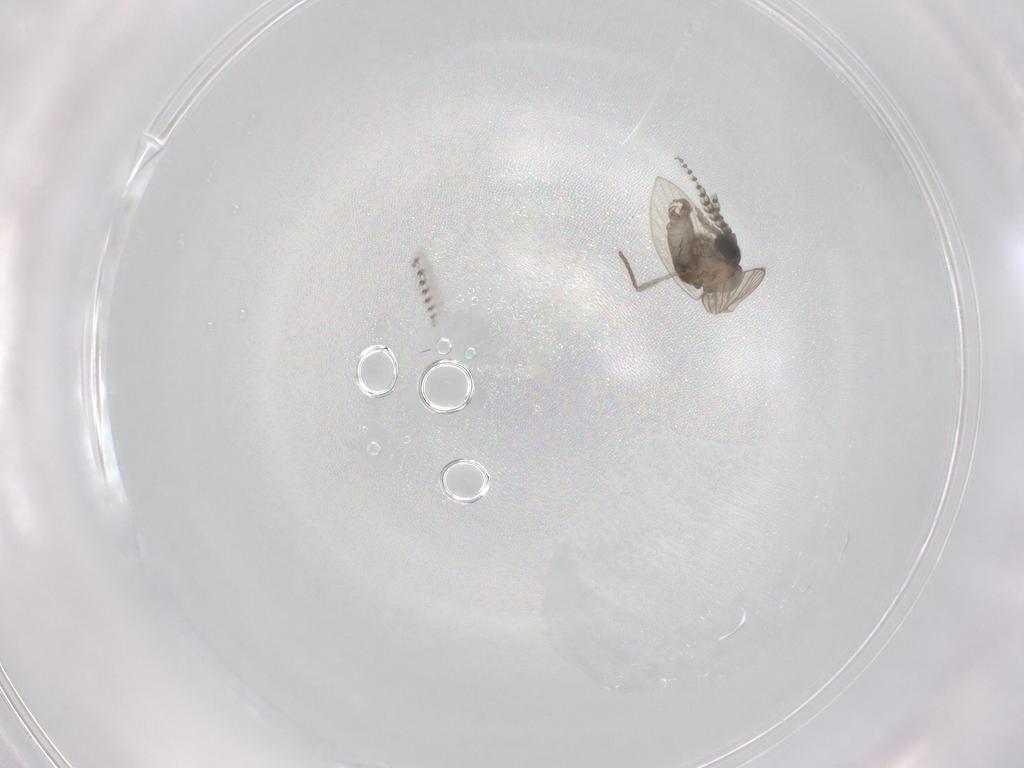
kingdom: Animalia
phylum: Arthropoda
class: Insecta
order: Diptera
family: Psychodidae
